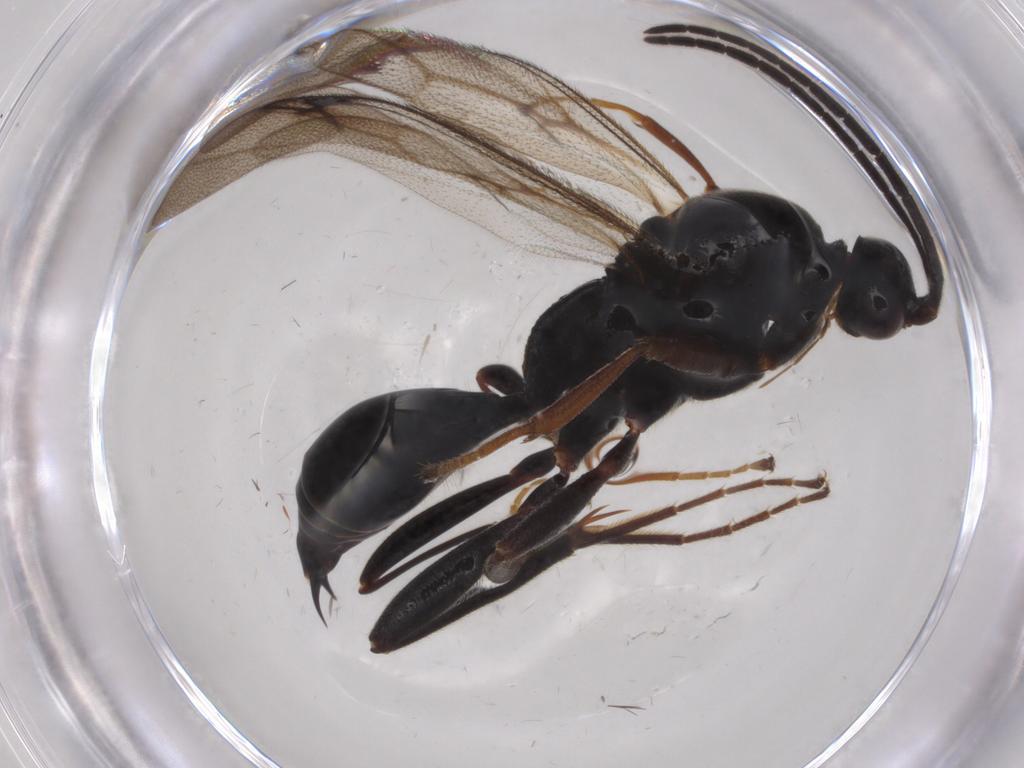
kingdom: Animalia
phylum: Arthropoda
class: Insecta
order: Hymenoptera
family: Proctotrupidae
